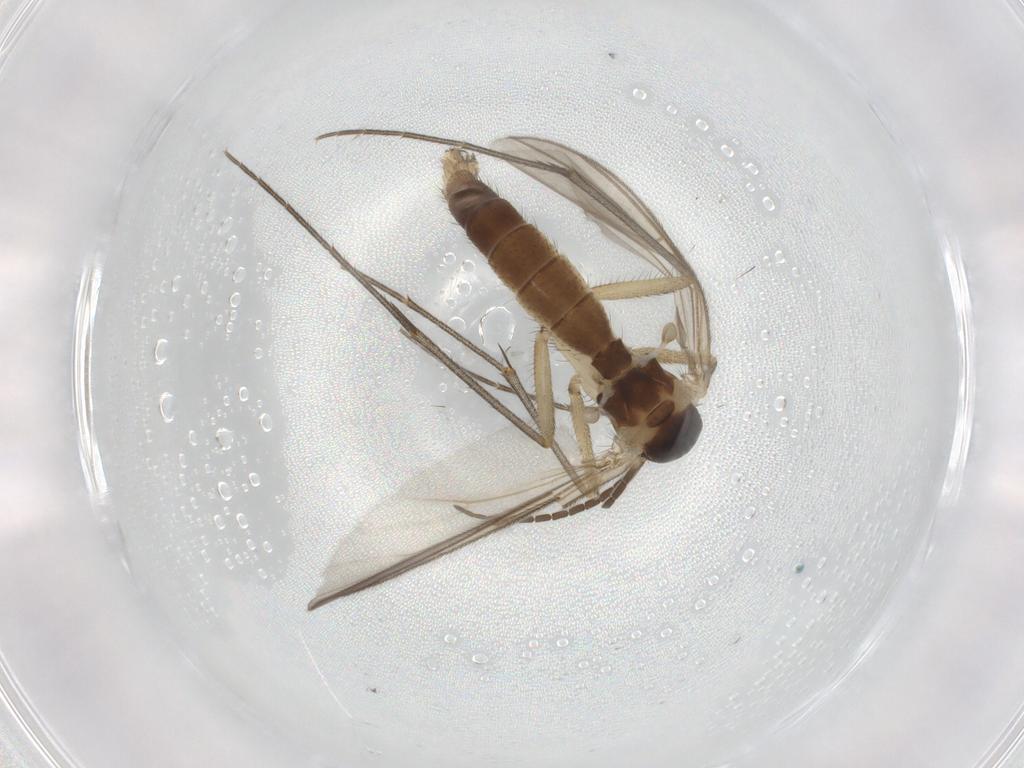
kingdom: Animalia
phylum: Arthropoda
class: Insecta
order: Diptera
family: Mycetophilidae
